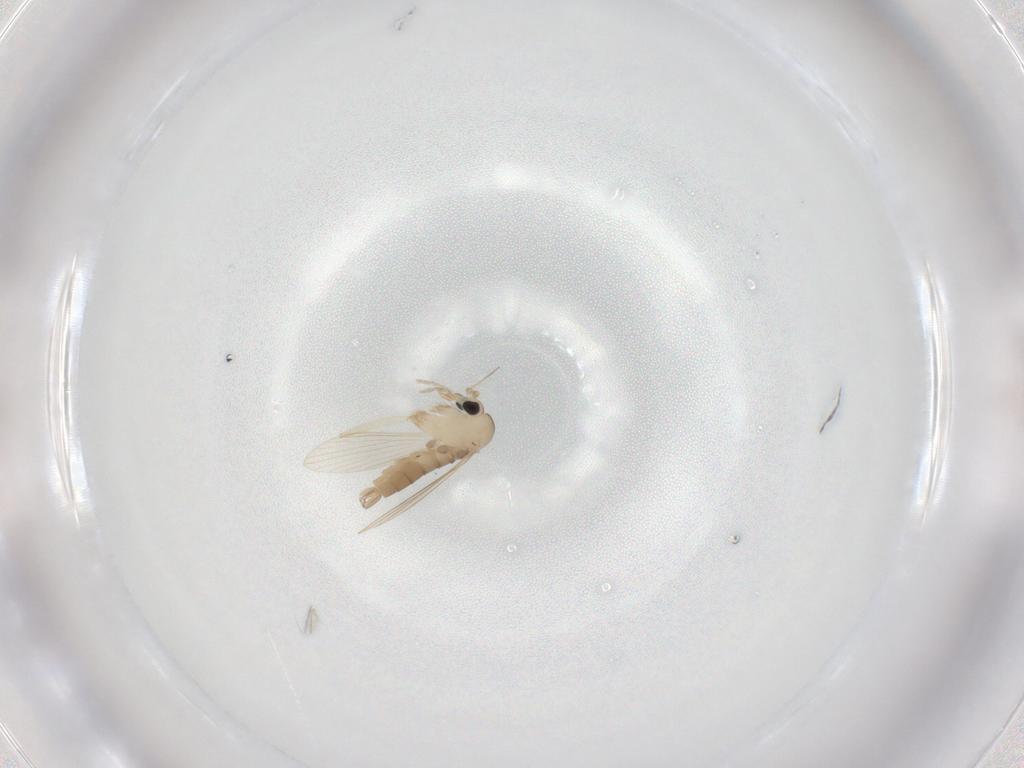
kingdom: Animalia
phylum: Arthropoda
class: Insecta
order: Diptera
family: Psychodidae
